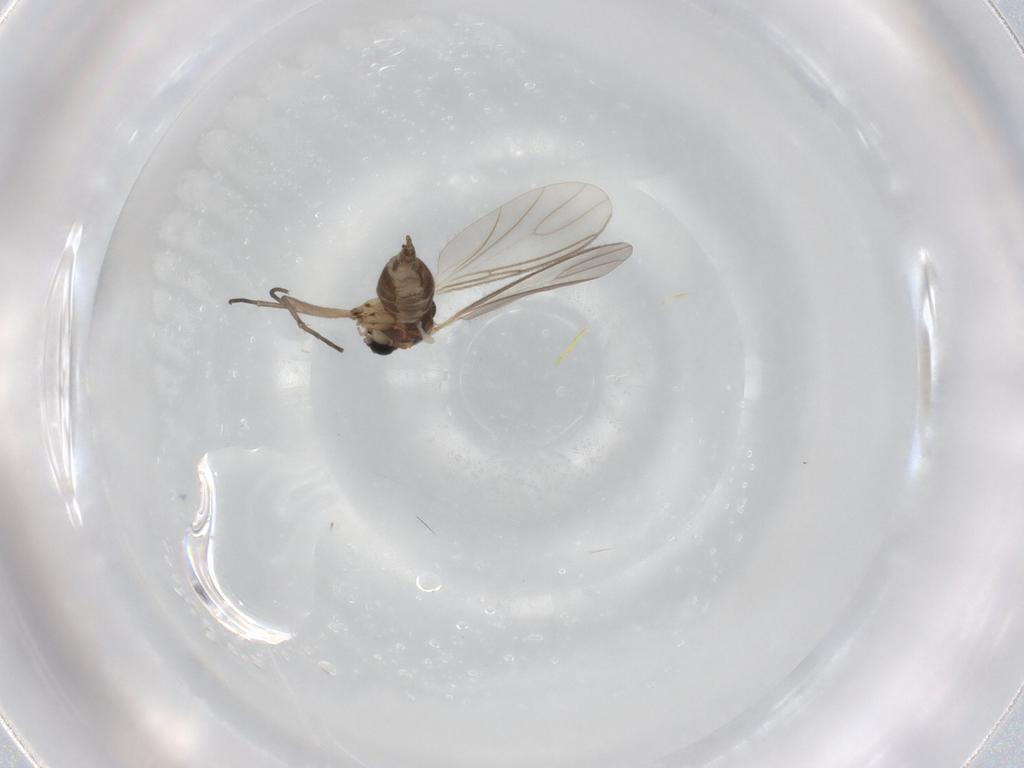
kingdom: Animalia
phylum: Arthropoda
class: Insecta
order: Diptera
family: Phoridae
